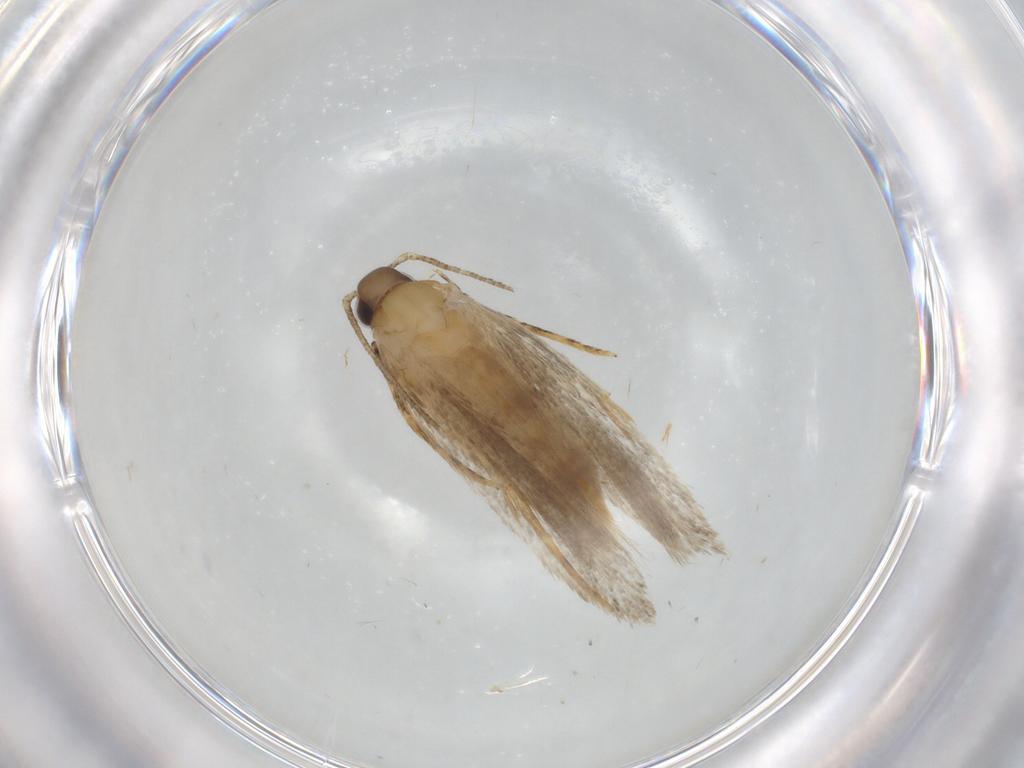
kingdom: Animalia
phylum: Arthropoda
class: Insecta
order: Lepidoptera
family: Autostichidae
